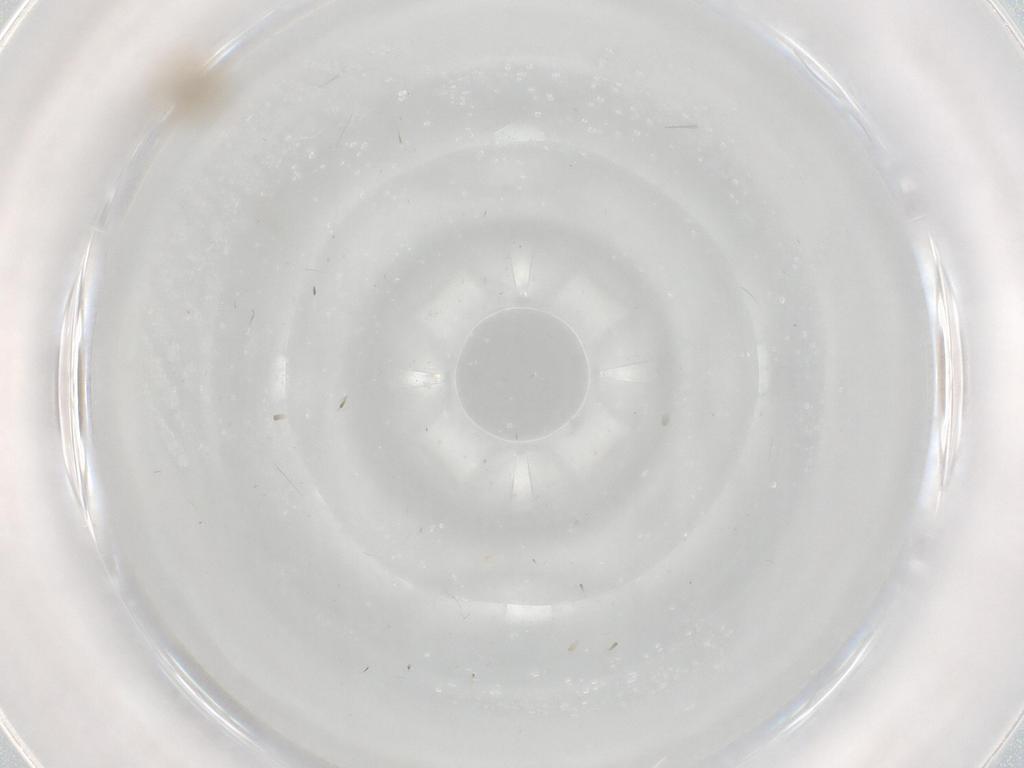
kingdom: Animalia
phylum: Arthropoda
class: Insecta
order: Diptera
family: Cecidomyiidae
